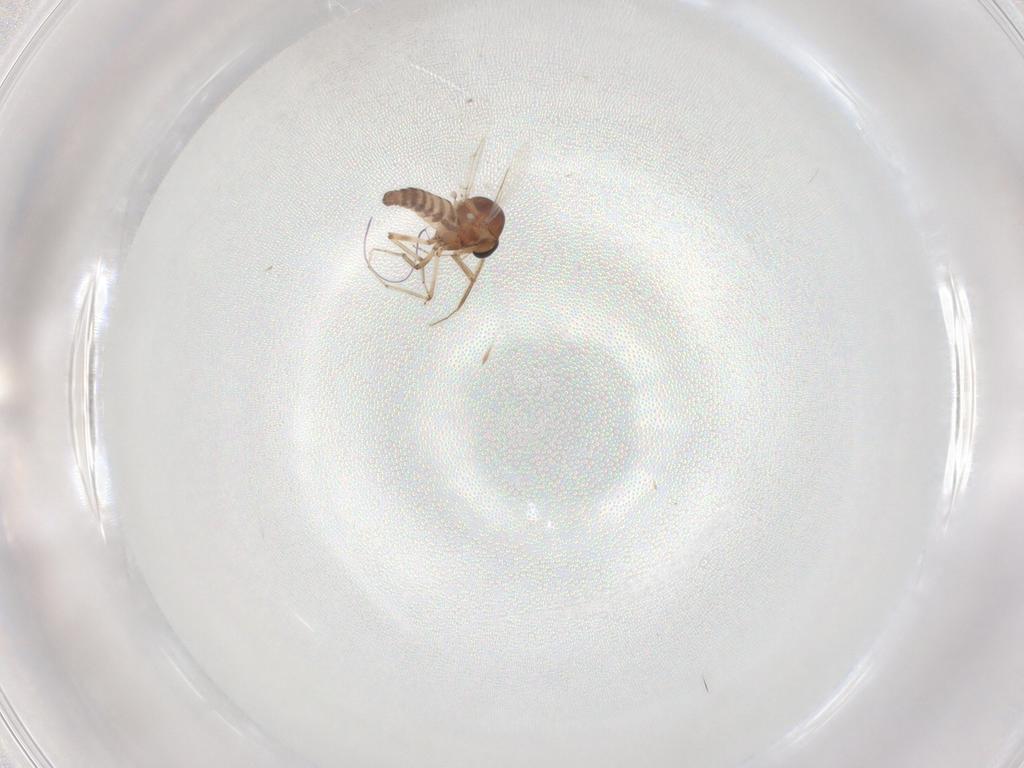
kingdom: Animalia
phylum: Arthropoda
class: Insecta
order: Diptera
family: Ceratopogonidae
